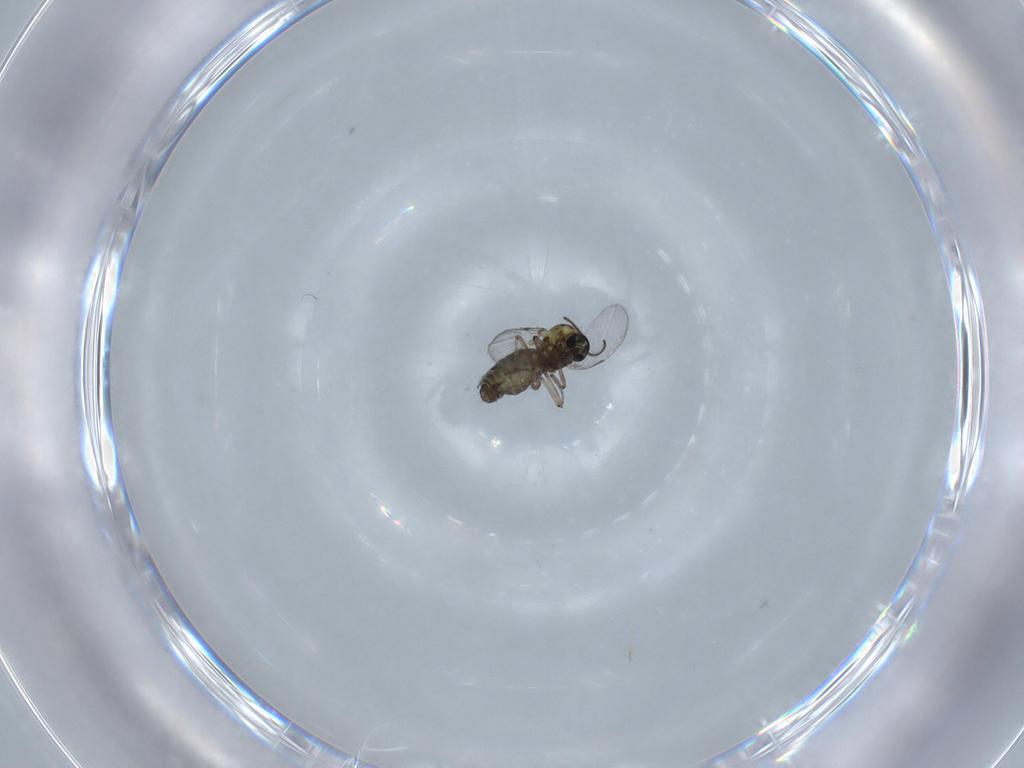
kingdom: Animalia
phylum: Arthropoda
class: Insecta
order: Diptera
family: Ceratopogonidae
